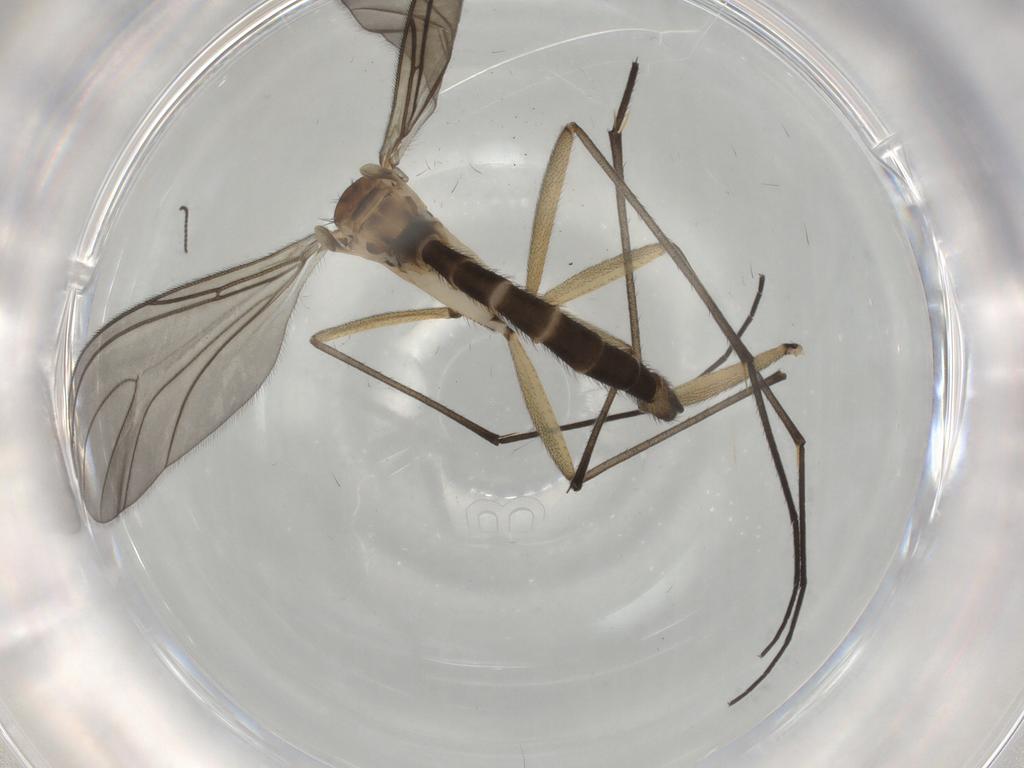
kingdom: Animalia
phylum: Arthropoda
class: Insecta
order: Diptera
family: Sciaridae
